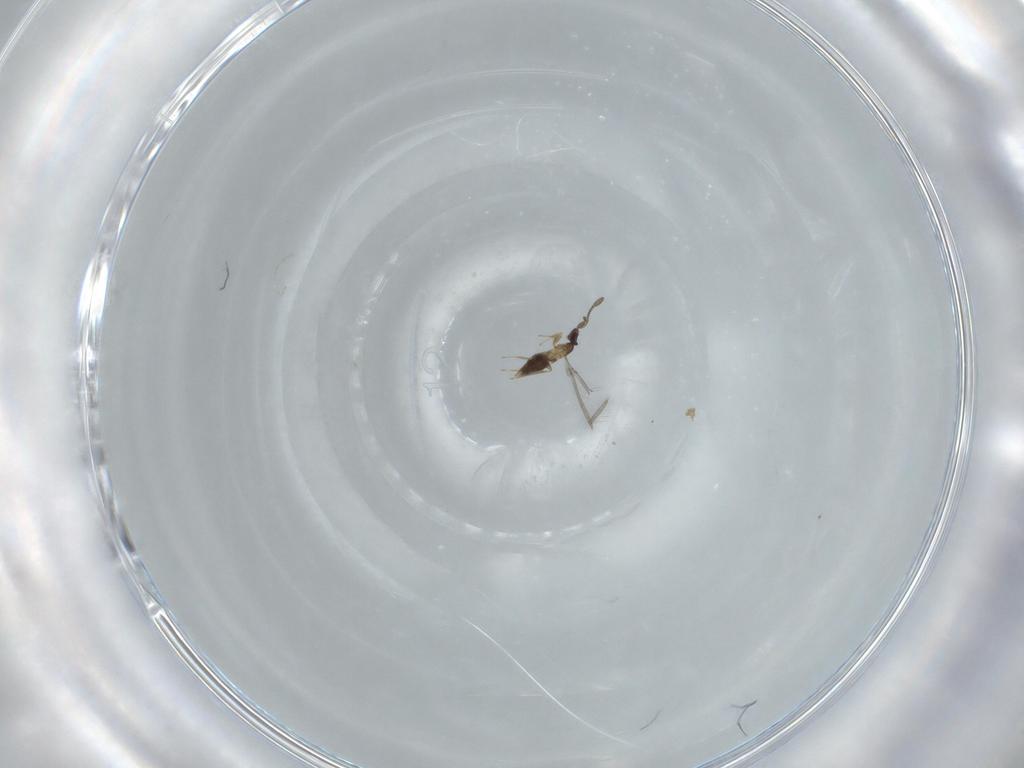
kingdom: Animalia
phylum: Arthropoda
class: Insecta
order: Hymenoptera
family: Mymaridae
